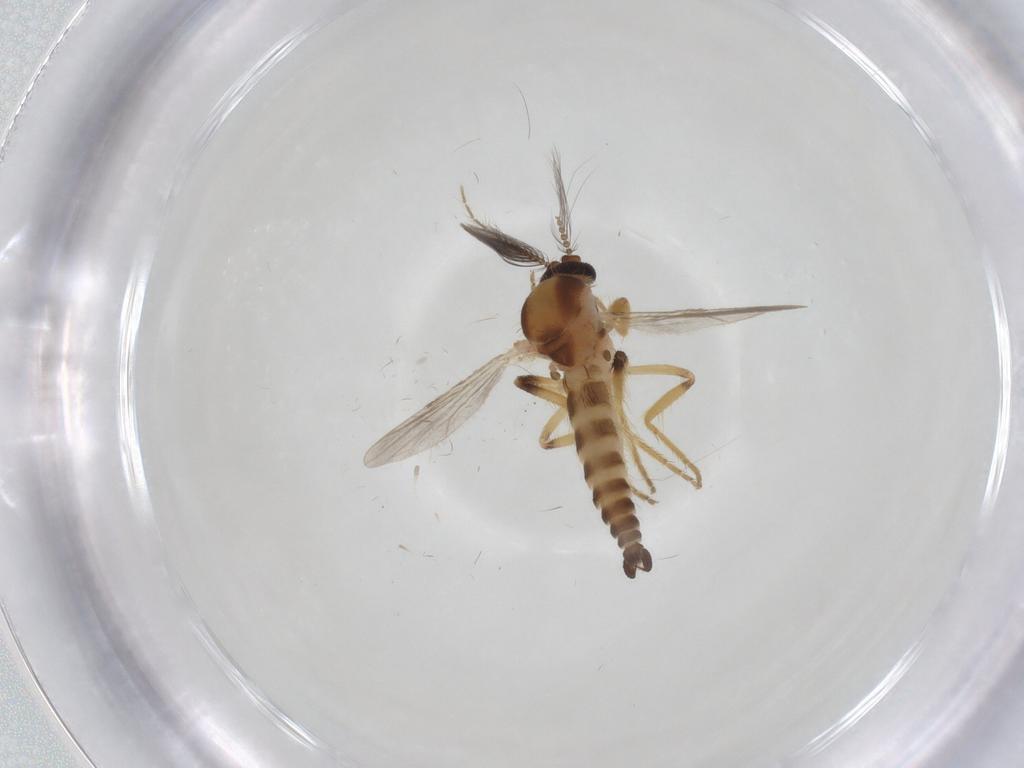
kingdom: Animalia
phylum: Arthropoda
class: Insecta
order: Diptera
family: Ceratopogonidae
